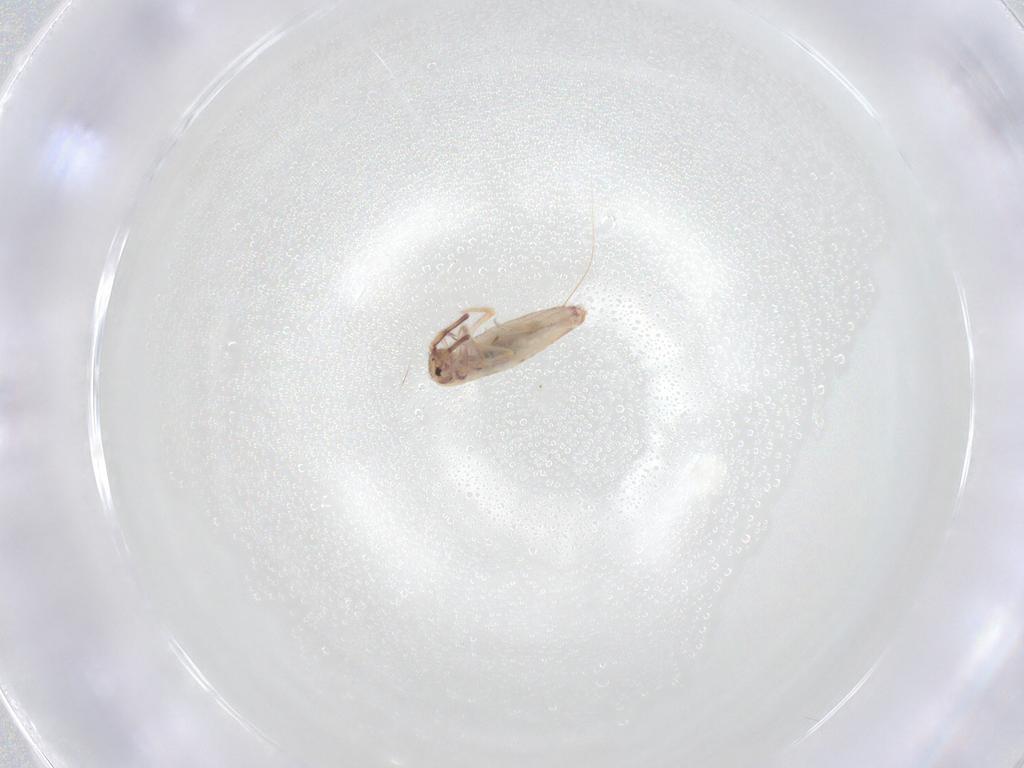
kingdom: Animalia
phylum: Arthropoda
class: Collembola
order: Entomobryomorpha
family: Entomobryidae
